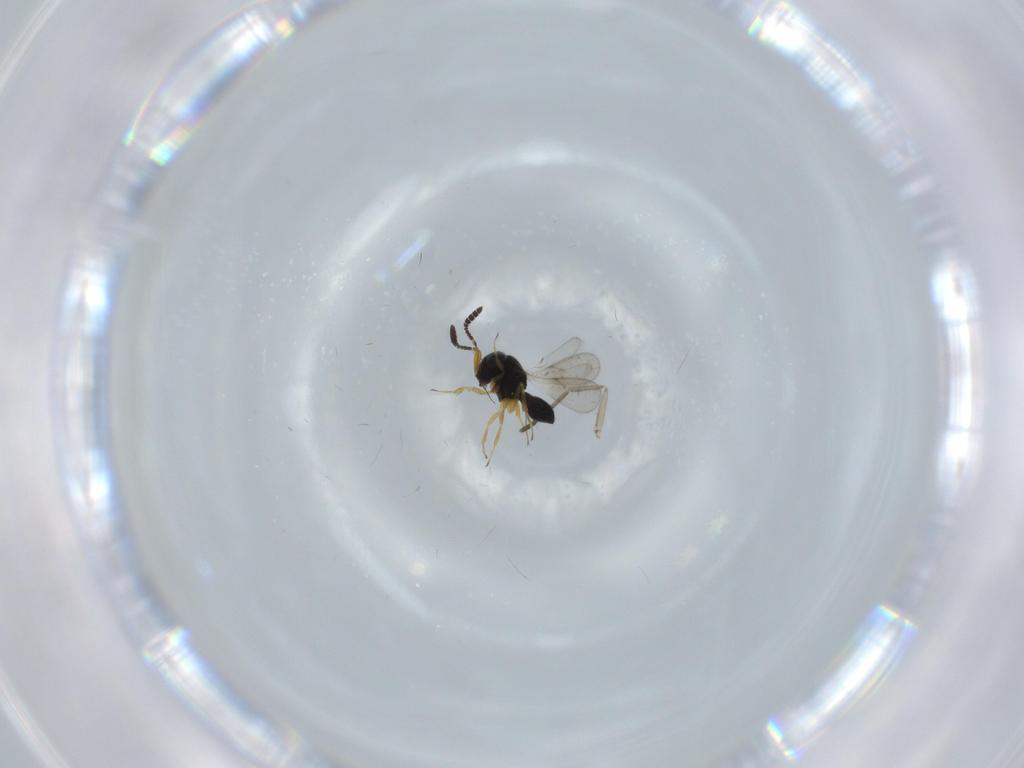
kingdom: Animalia
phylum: Arthropoda
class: Insecta
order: Hymenoptera
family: Scelionidae
